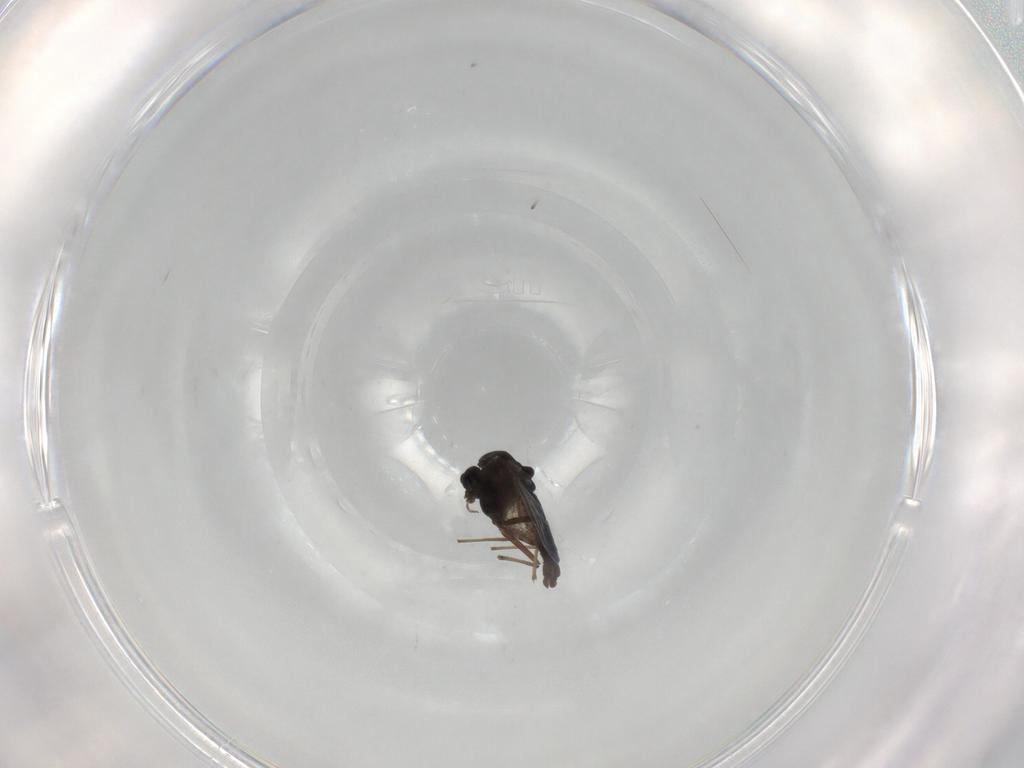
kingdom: Animalia
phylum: Arthropoda
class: Insecta
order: Diptera
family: Chironomidae
